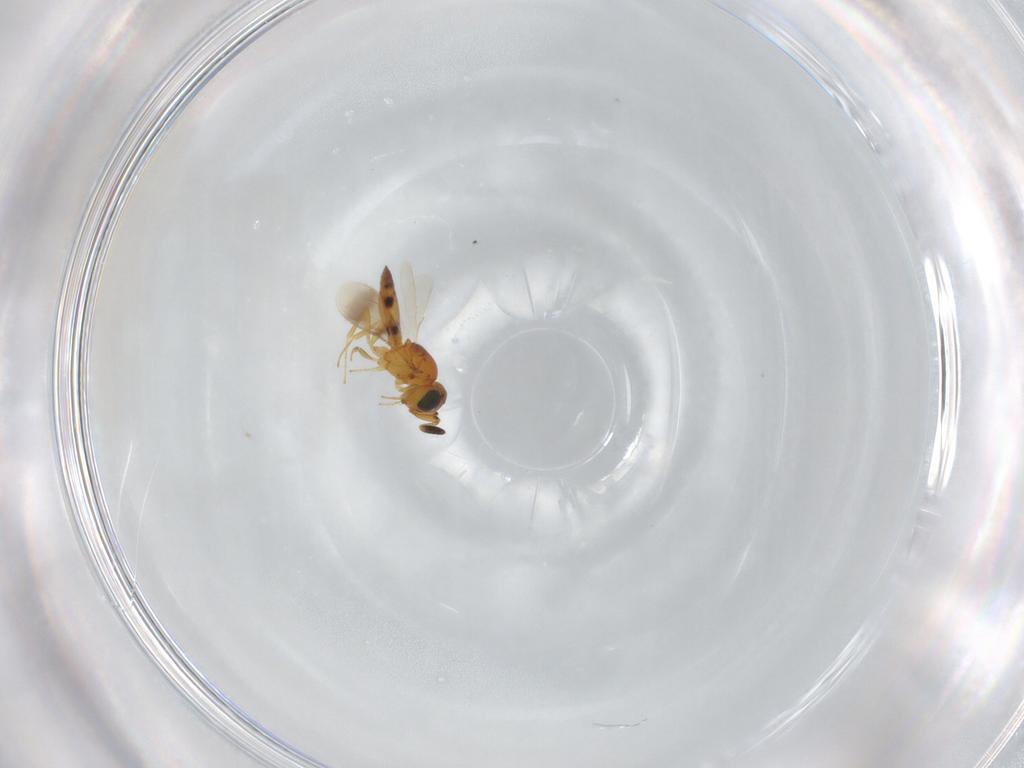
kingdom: Animalia
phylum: Arthropoda
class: Insecta
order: Hymenoptera
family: Scelionidae
